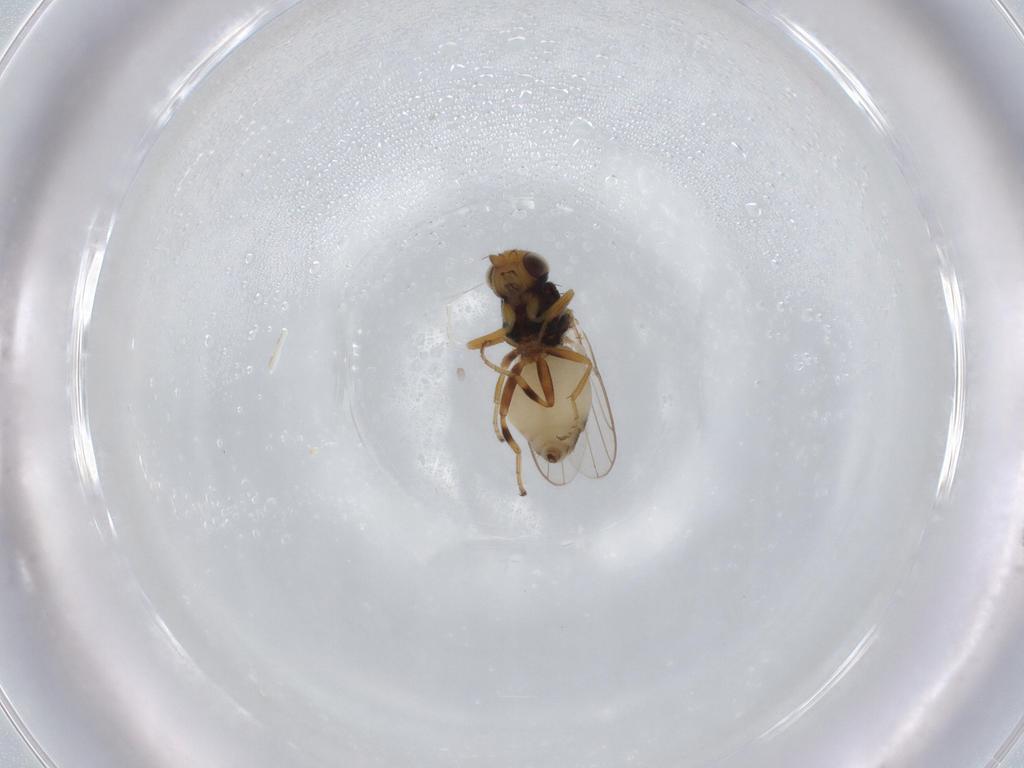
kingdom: Animalia
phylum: Arthropoda
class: Insecta
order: Diptera
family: Chloropidae
